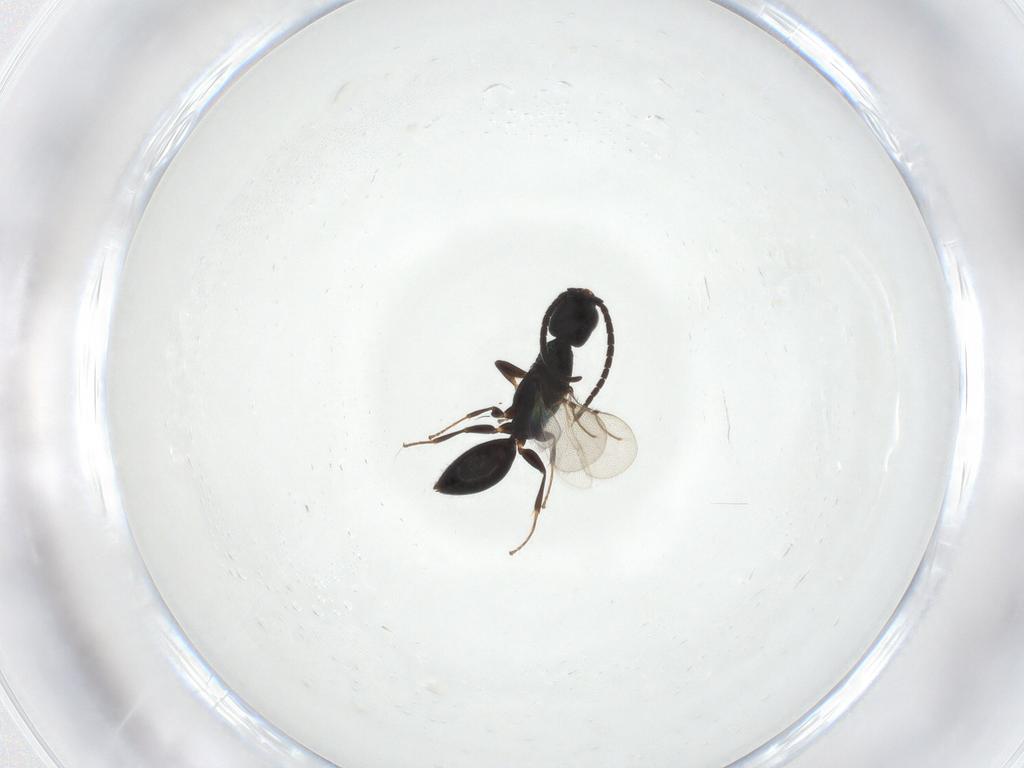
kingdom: Animalia
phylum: Arthropoda
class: Insecta
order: Hymenoptera
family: Bethylidae
